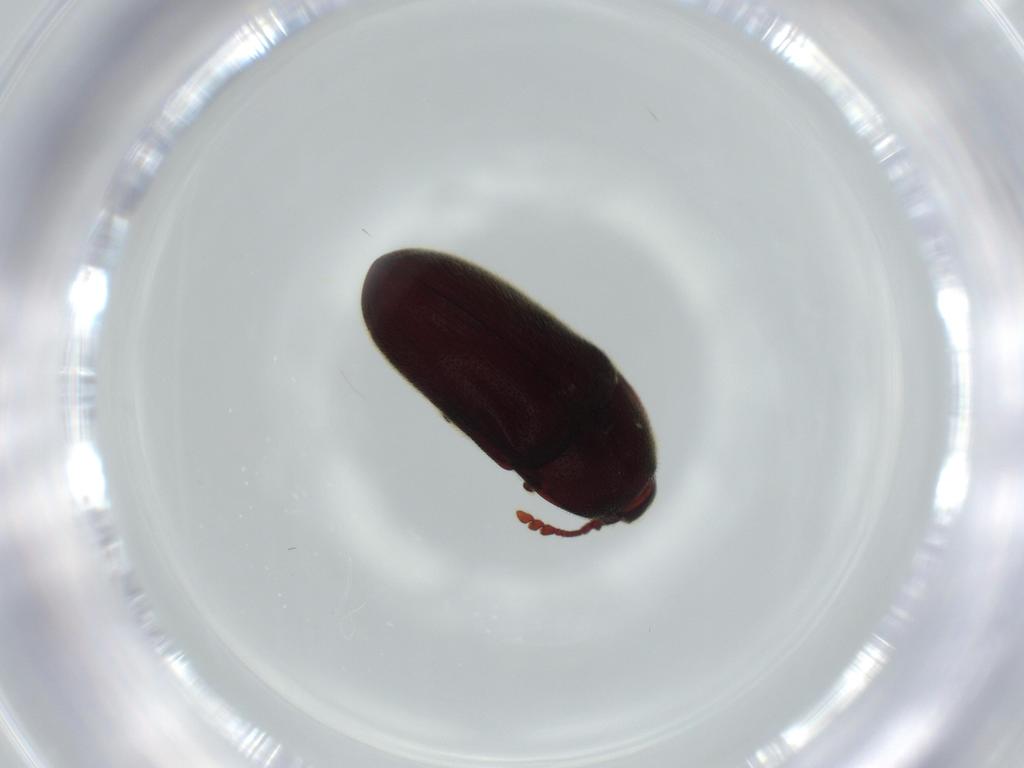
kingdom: Animalia
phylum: Arthropoda
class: Insecta
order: Coleoptera
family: Throscidae
